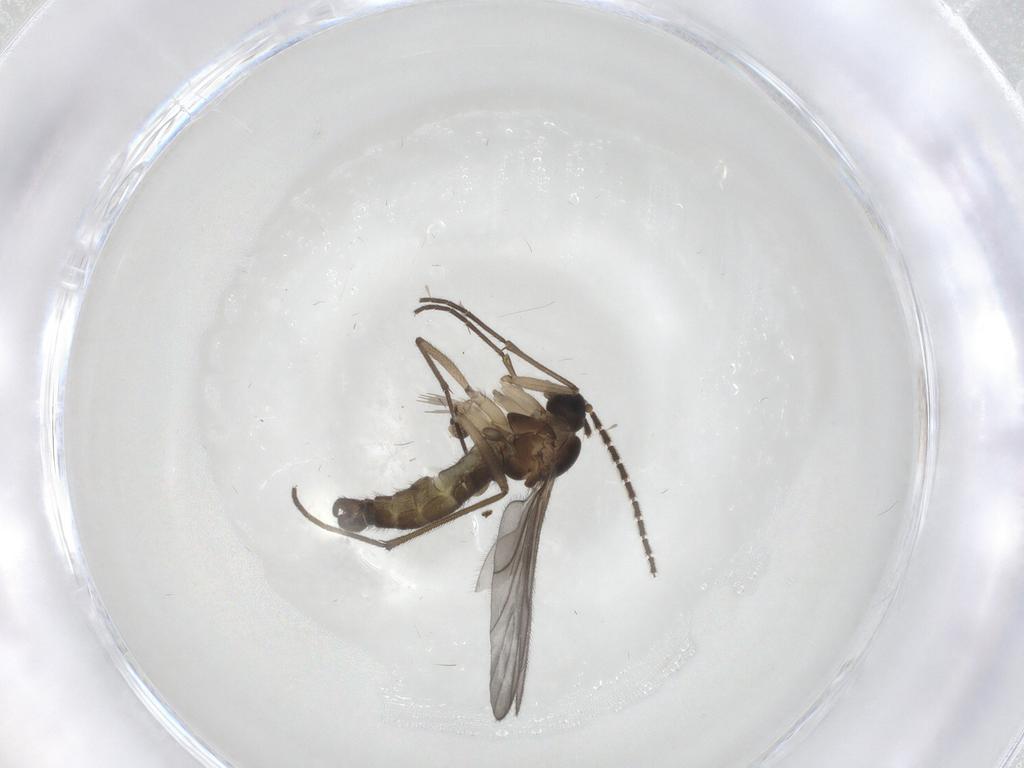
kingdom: Animalia
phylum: Arthropoda
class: Insecta
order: Diptera
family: Sciaridae
